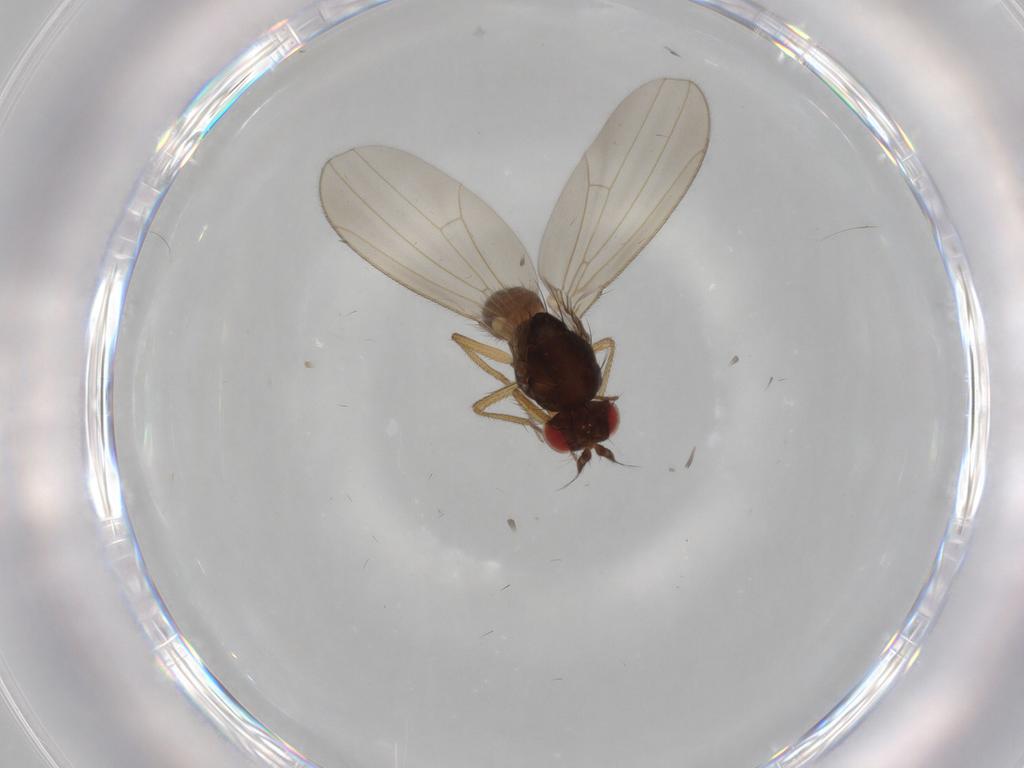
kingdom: Animalia
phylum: Arthropoda
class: Insecta
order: Diptera
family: Drosophilidae
